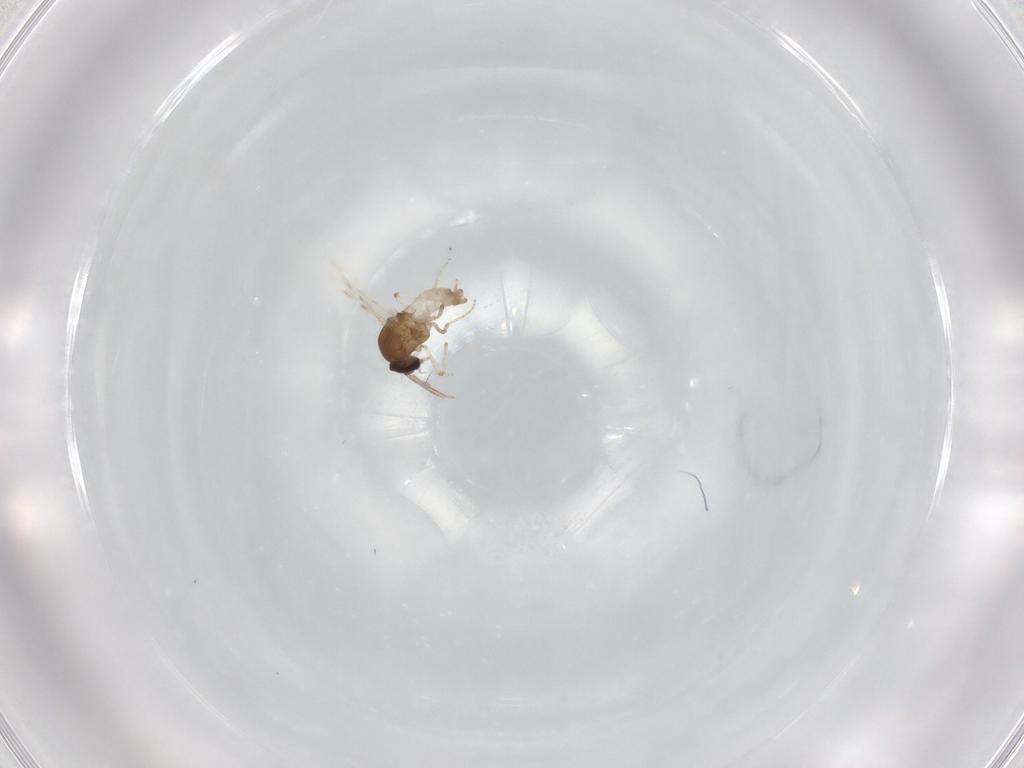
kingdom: Animalia
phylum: Arthropoda
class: Insecta
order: Diptera
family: Ceratopogonidae
